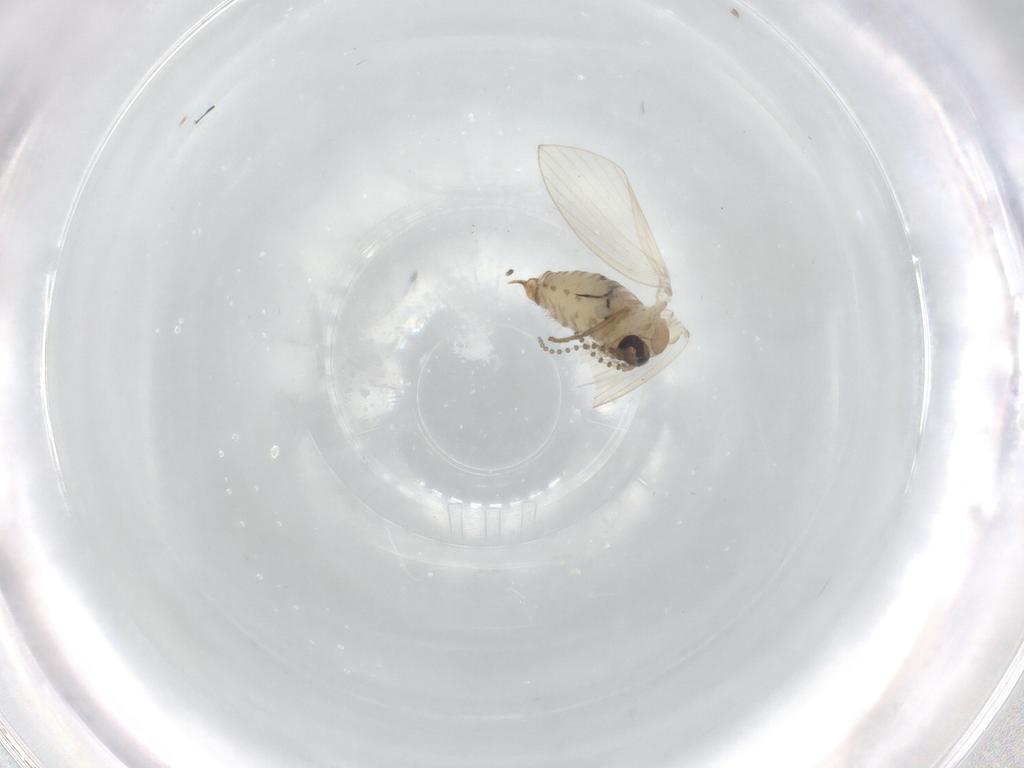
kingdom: Animalia
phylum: Arthropoda
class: Insecta
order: Diptera
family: Psychodidae
